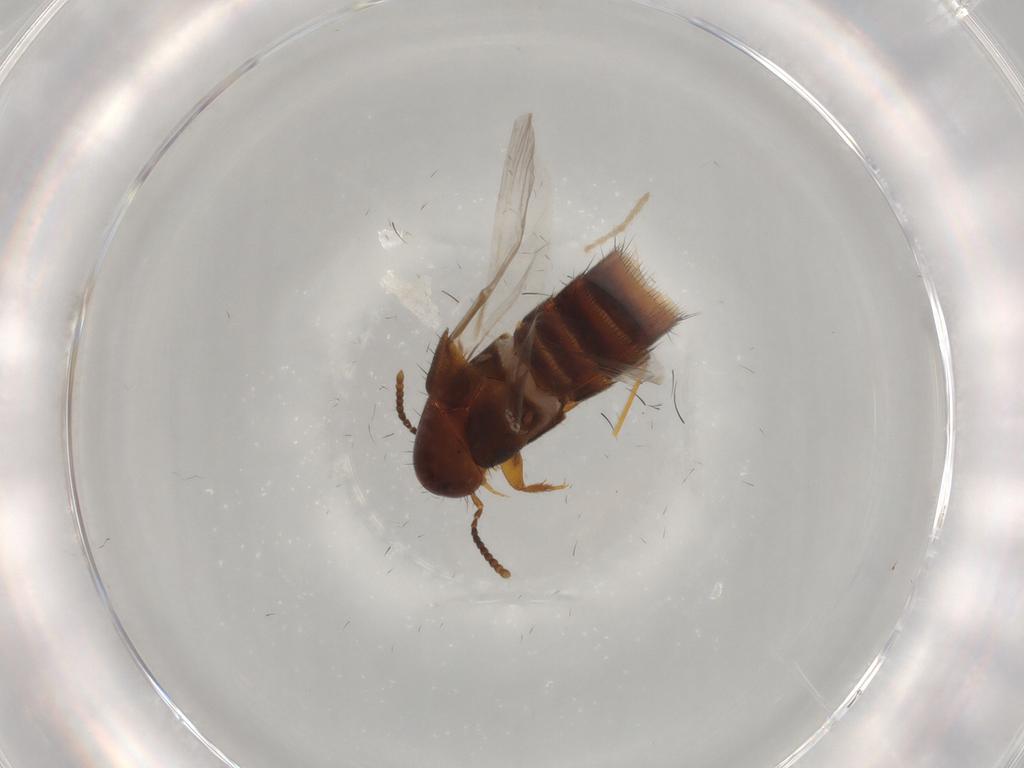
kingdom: Animalia
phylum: Arthropoda
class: Insecta
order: Coleoptera
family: Staphylinidae
